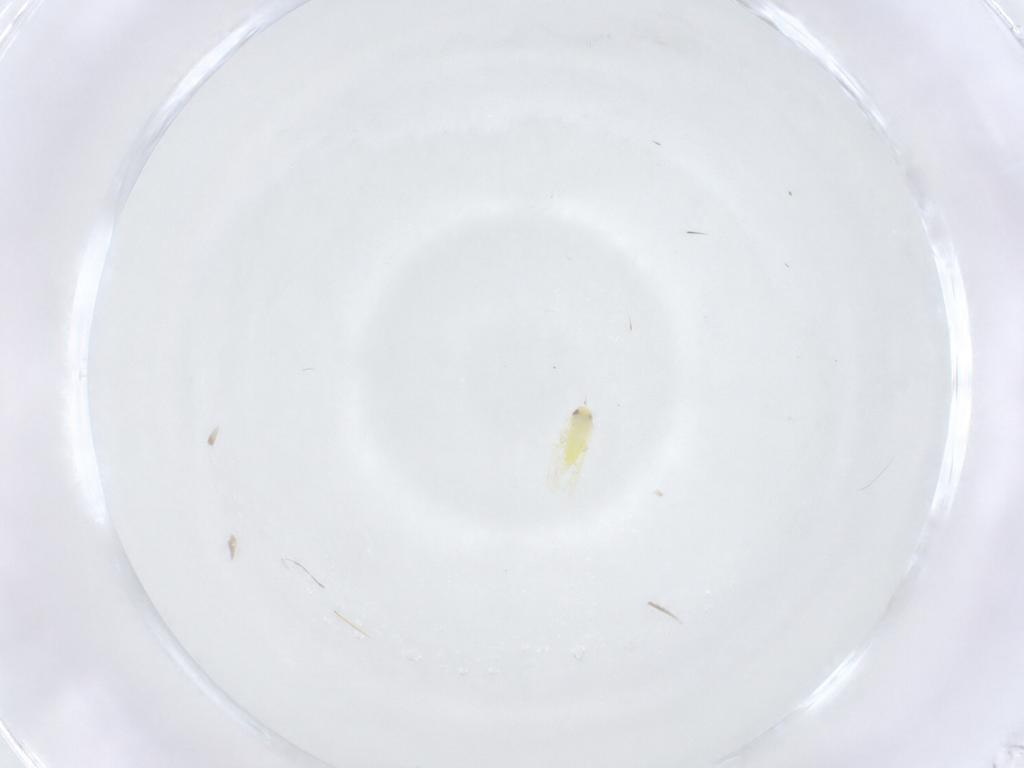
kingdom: Animalia
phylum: Arthropoda
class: Insecta
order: Hemiptera
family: Aleyrodidae
